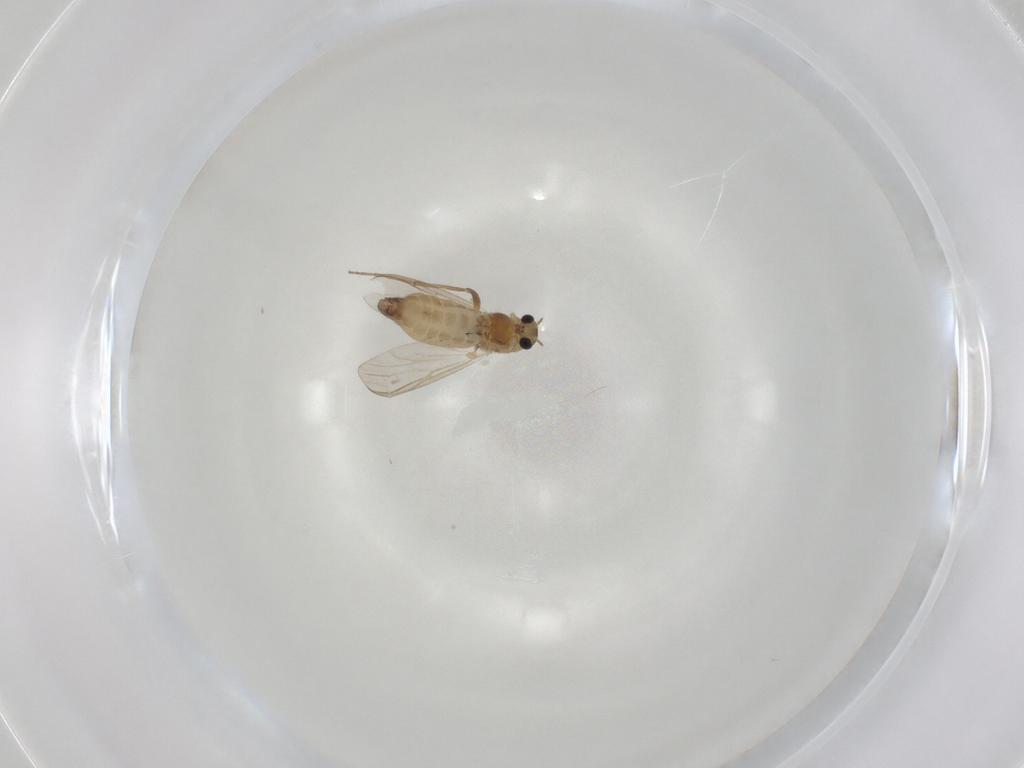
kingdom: Animalia
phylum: Arthropoda
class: Insecta
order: Diptera
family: Chironomidae
